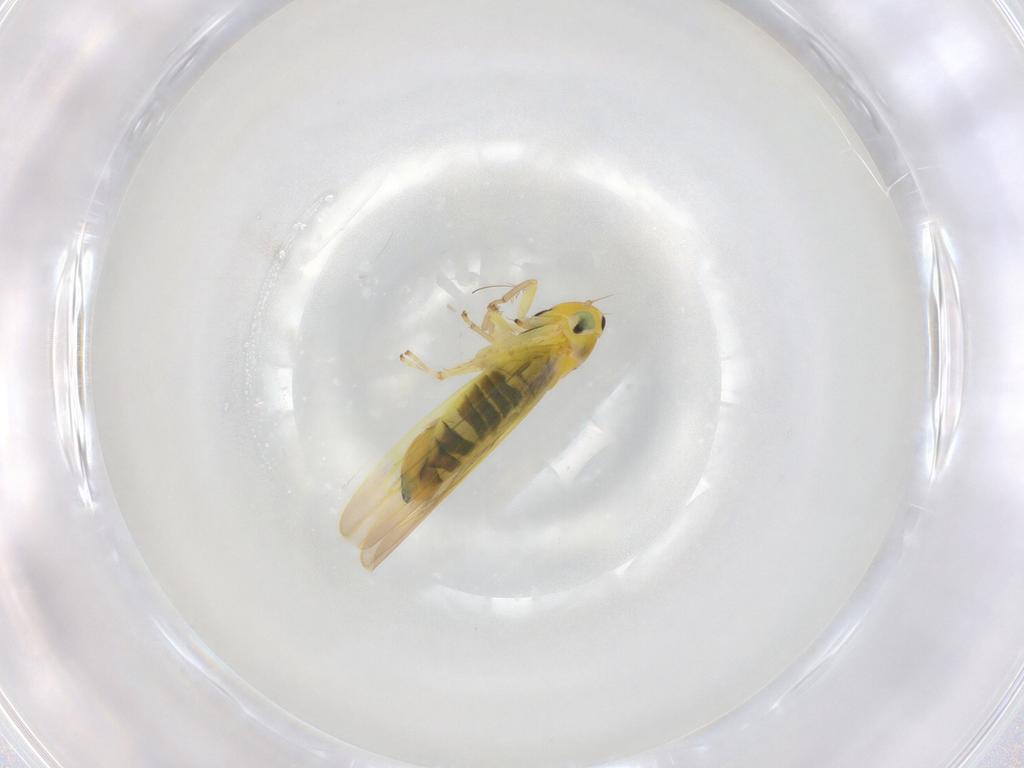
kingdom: Animalia
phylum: Arthropoda
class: Insecta
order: Hemiptera
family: Cicadellidae
